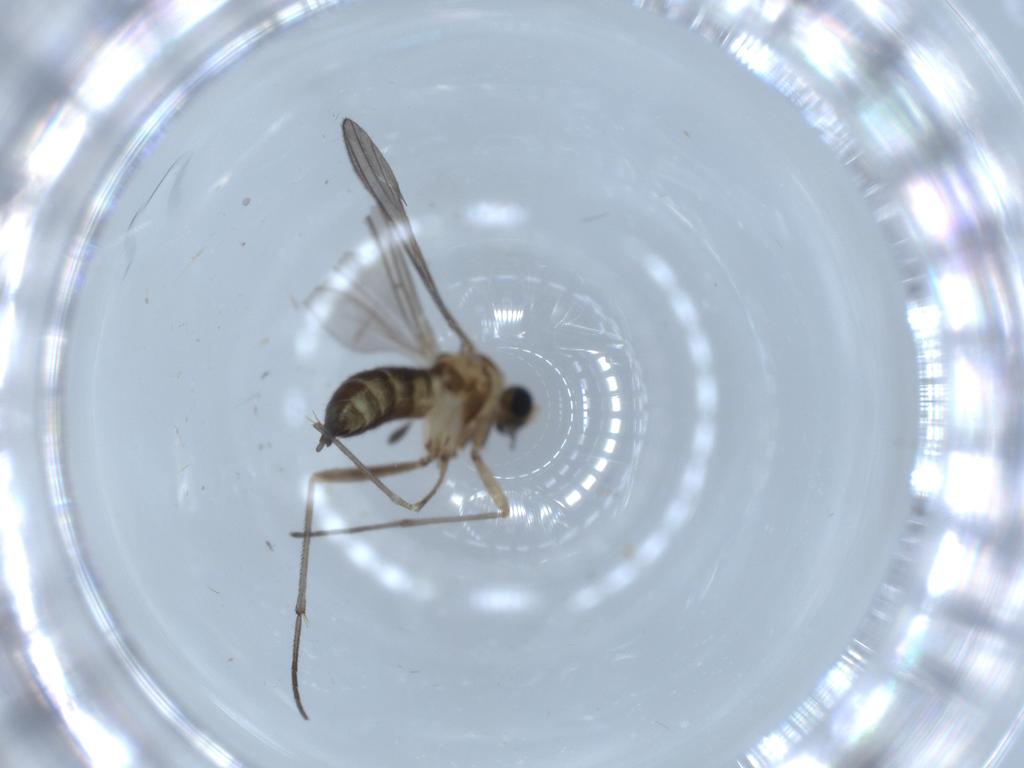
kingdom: Animalia
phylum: Arthropoda
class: Insecta
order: Diptera
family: Sciaridae
